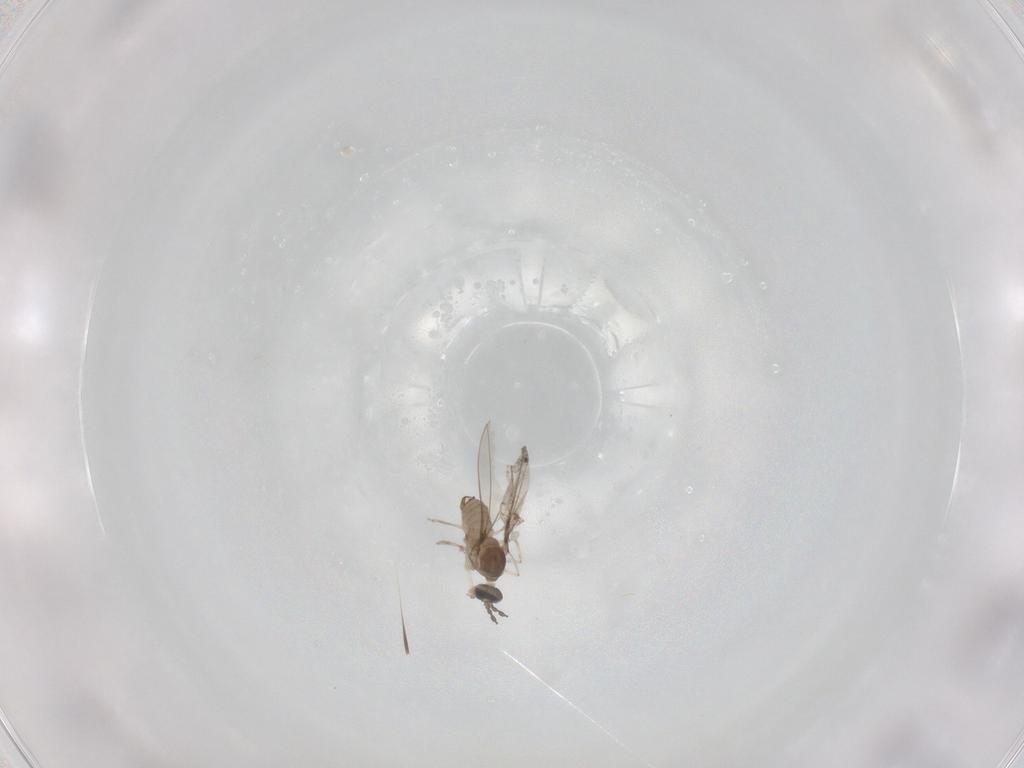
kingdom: Animalia
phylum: Arthropoda
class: Insecta
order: Diptera
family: Cecidomyiidae
